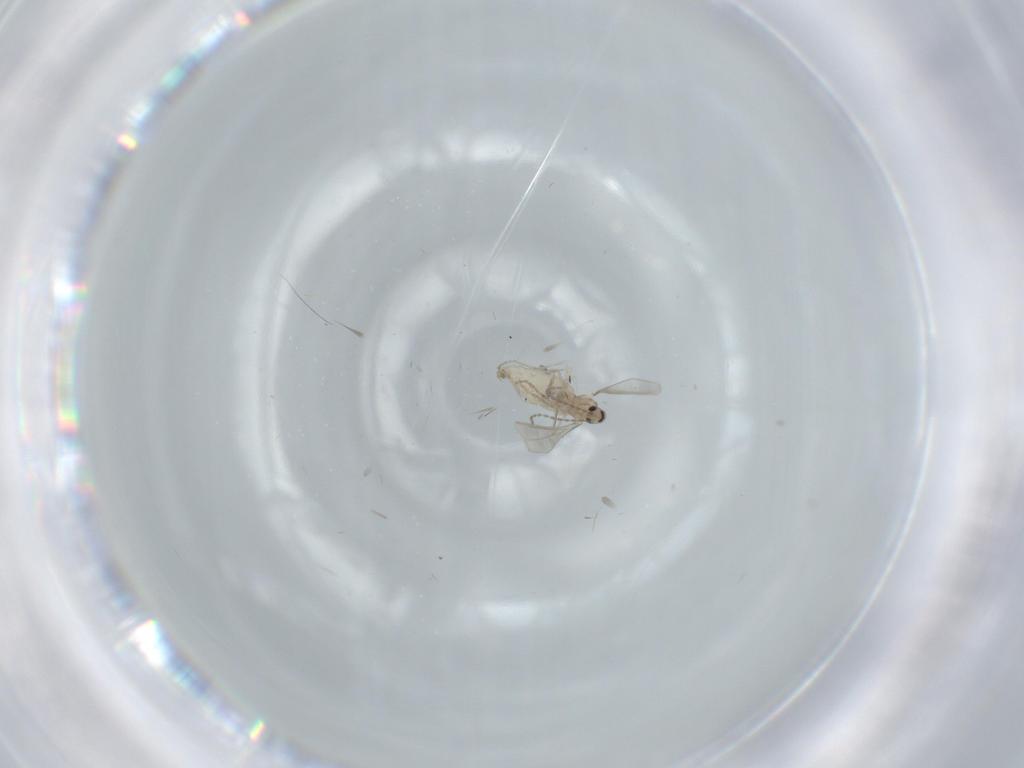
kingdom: Animalia
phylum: Arthropoda
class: Insecta
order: Diptera
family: Cecidomyiidae
